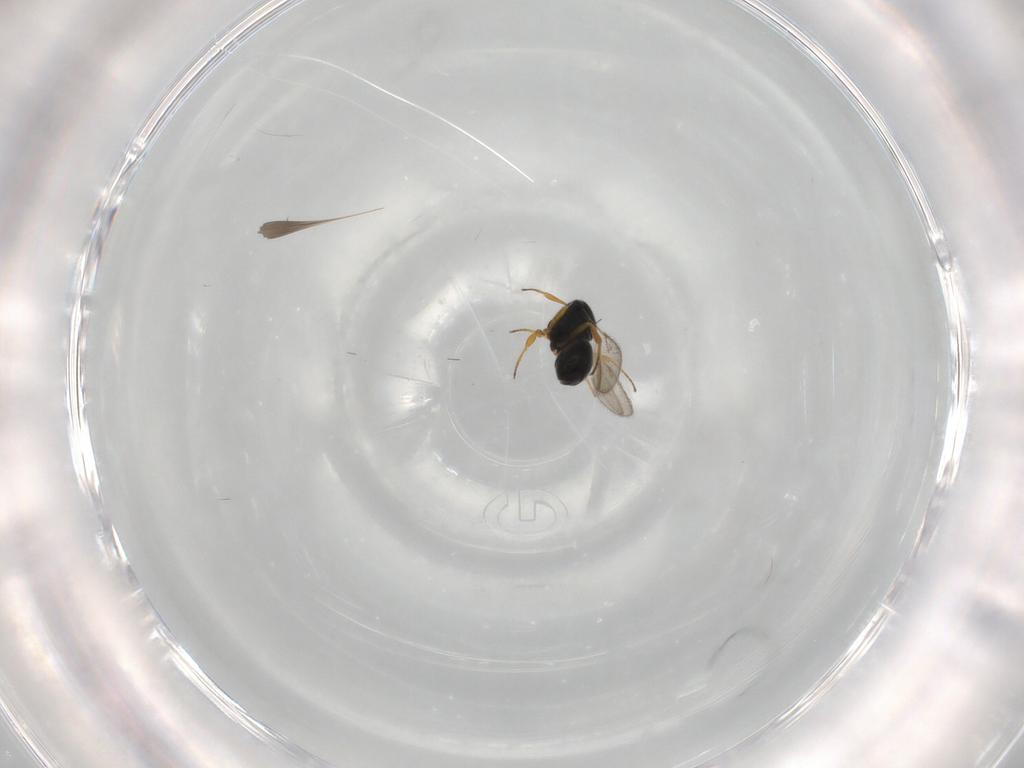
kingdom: Animalia
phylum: Arthropoda
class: Insecta
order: Hymenoptera
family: Scelionidae
